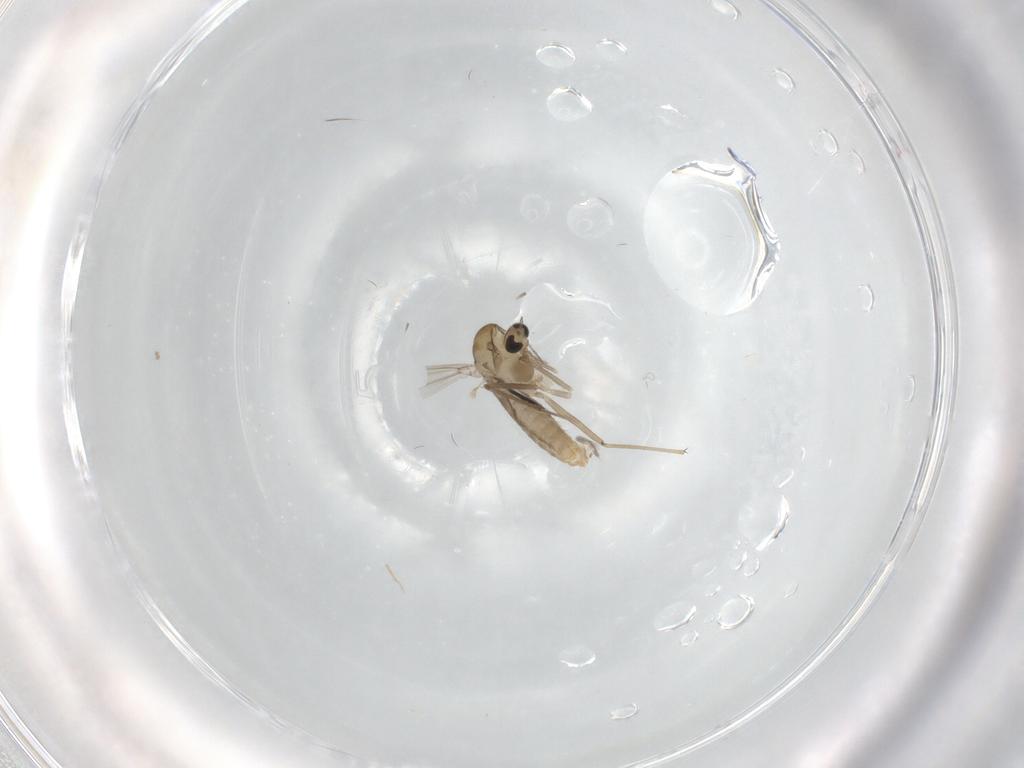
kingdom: Animalia
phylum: Arthropoda
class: Insecta
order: Diptera
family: Chironomidae
